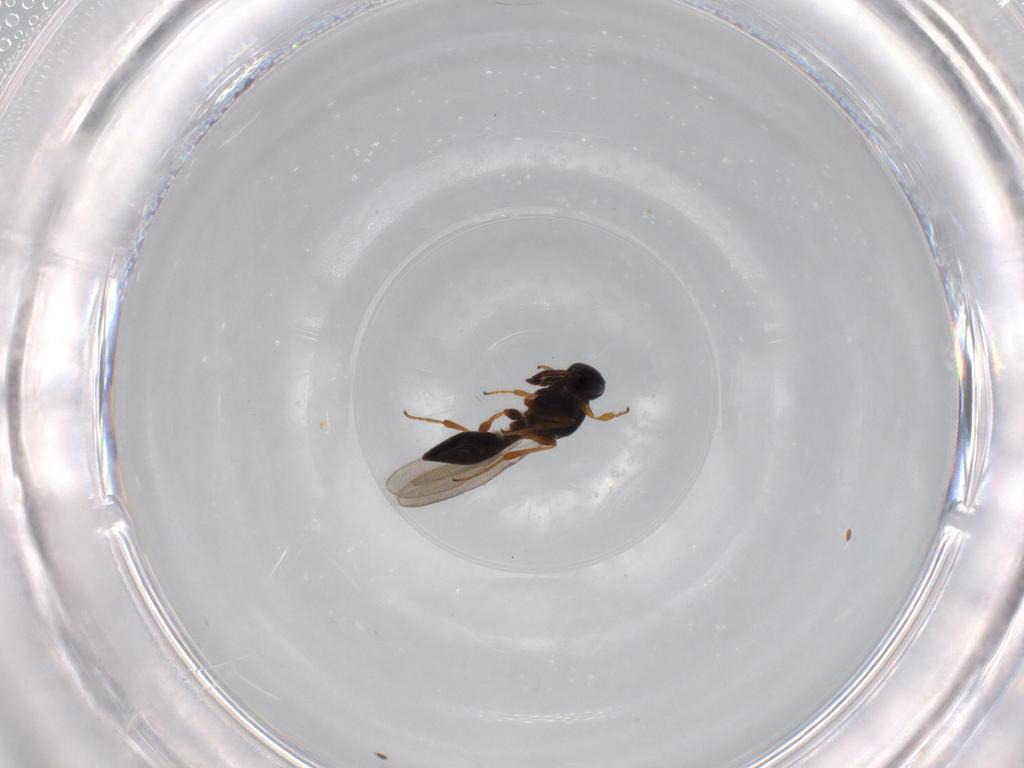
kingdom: Animalia
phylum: Arthropoda
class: Insecta
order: Hymenoptera
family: Platygastridae
